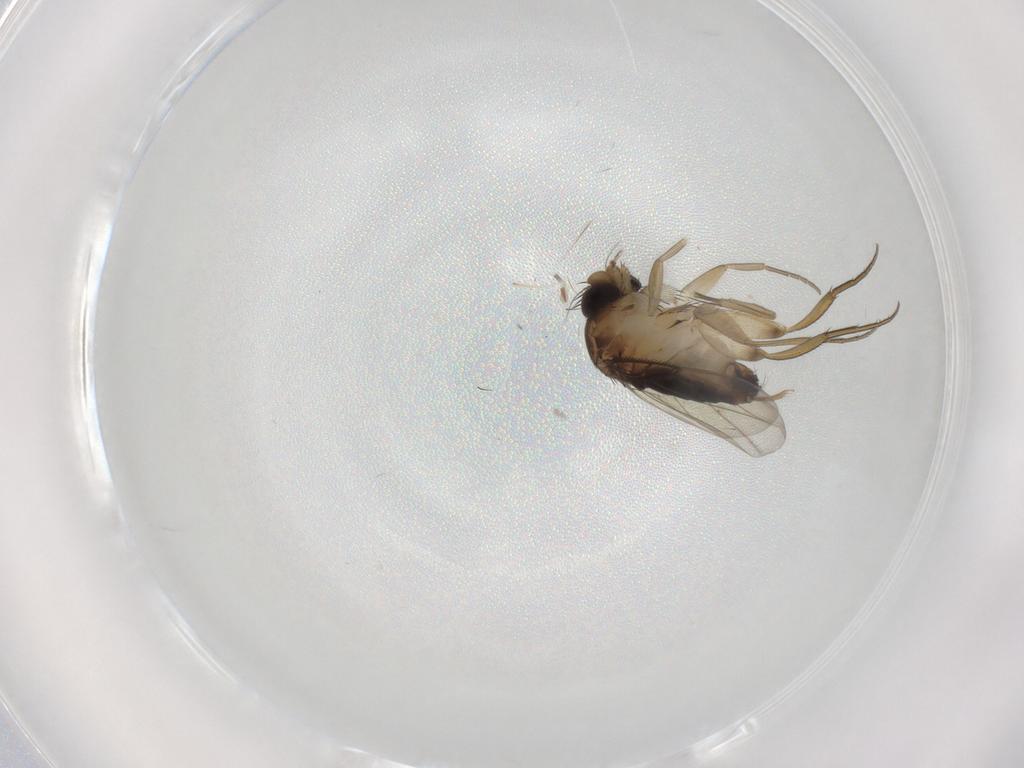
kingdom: Animalia
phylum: Arthropoda
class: Insecta
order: Diptera
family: Phoridae
